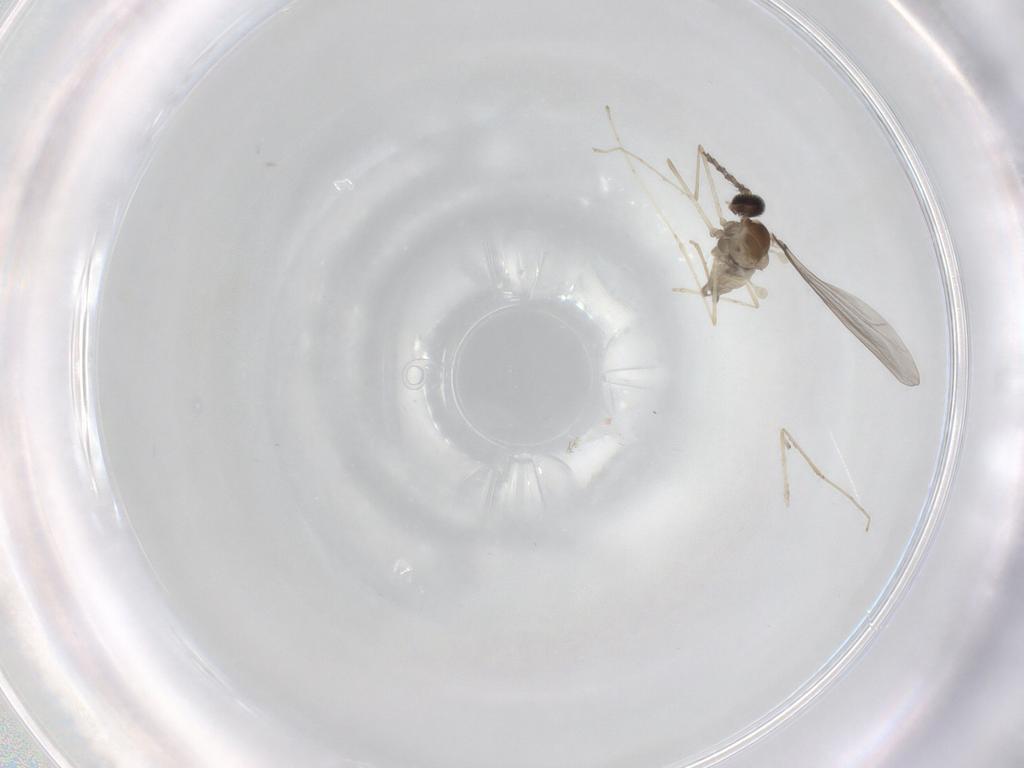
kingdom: Animalia
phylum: Arthropoda
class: Insecta
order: Diptera
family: Cecidomyiidae
